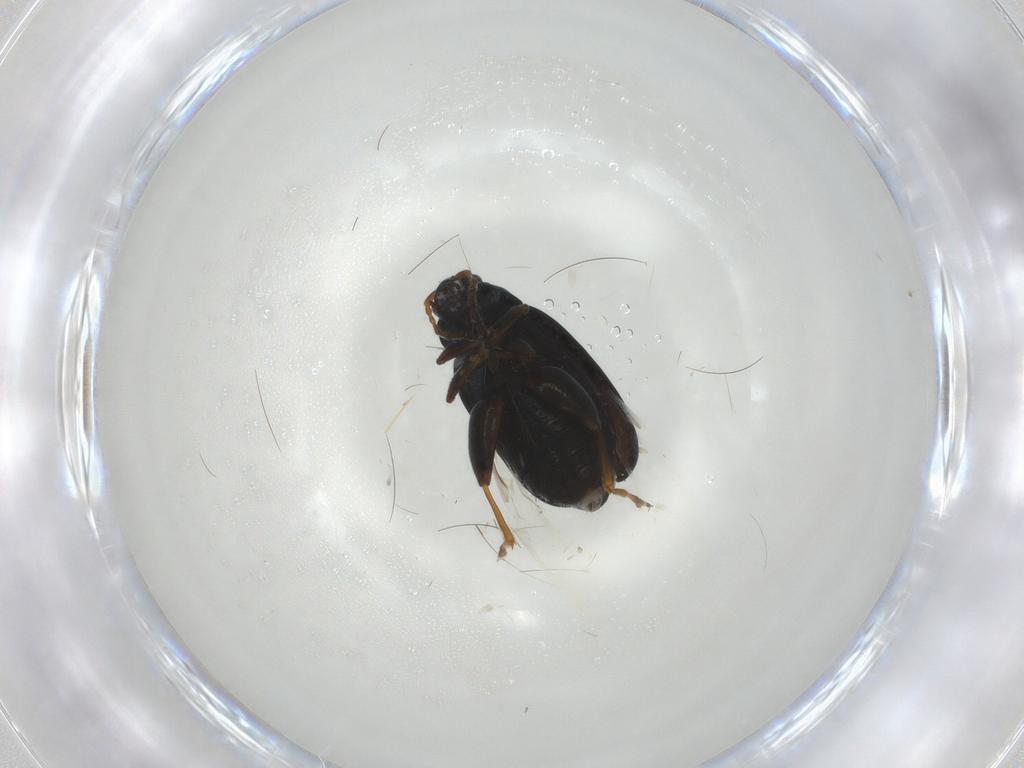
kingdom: Animalia
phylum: Arthropoda
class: Insecta
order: Coleoptera
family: Chrysomelidae
